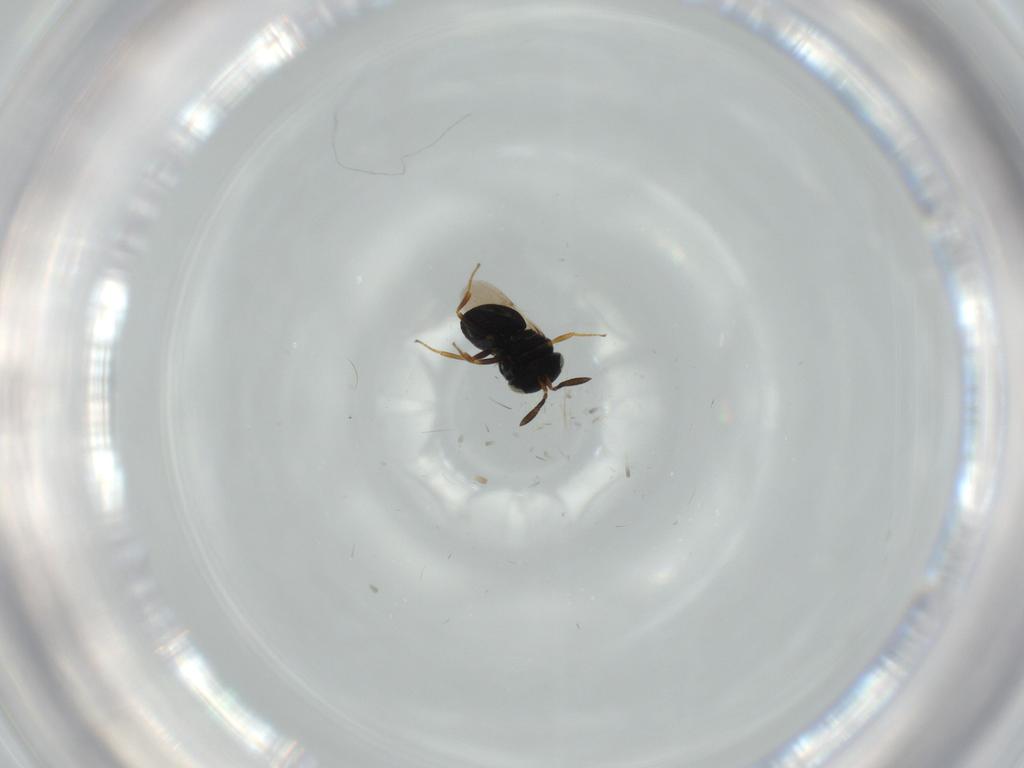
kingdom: Animalia
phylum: Arthropoda
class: Insecta
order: Hymenoptera
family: Scelionidae
